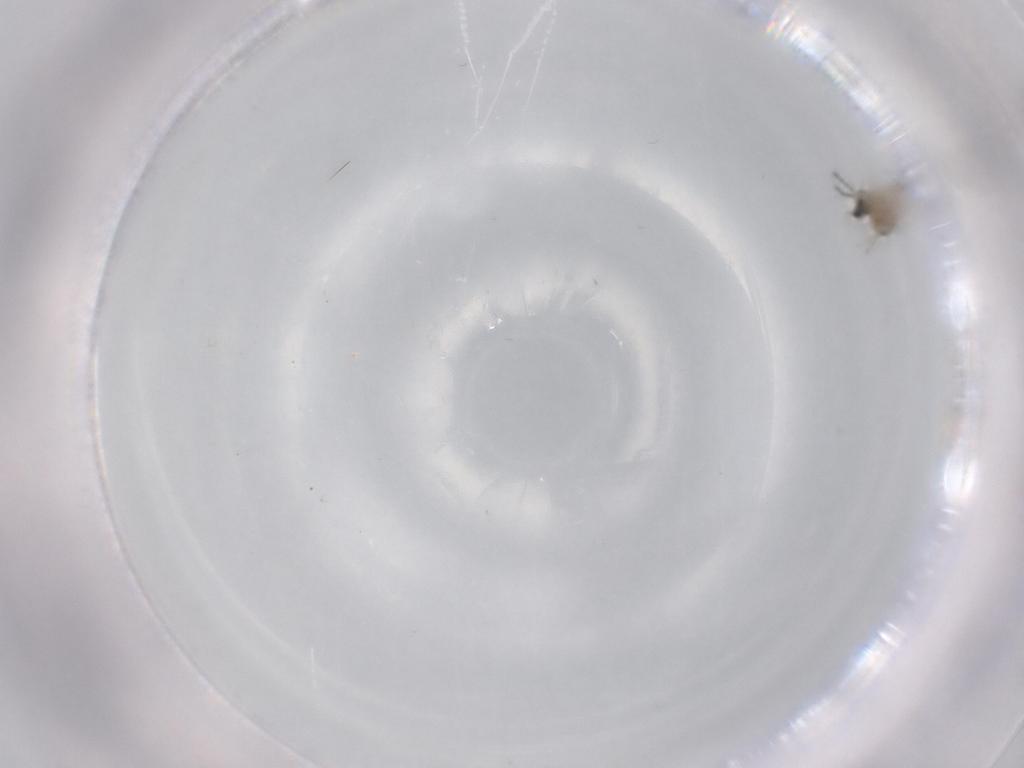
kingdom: Animalia
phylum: Arthropoda
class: Insecta
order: Diptera
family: Cecidomyiidae
